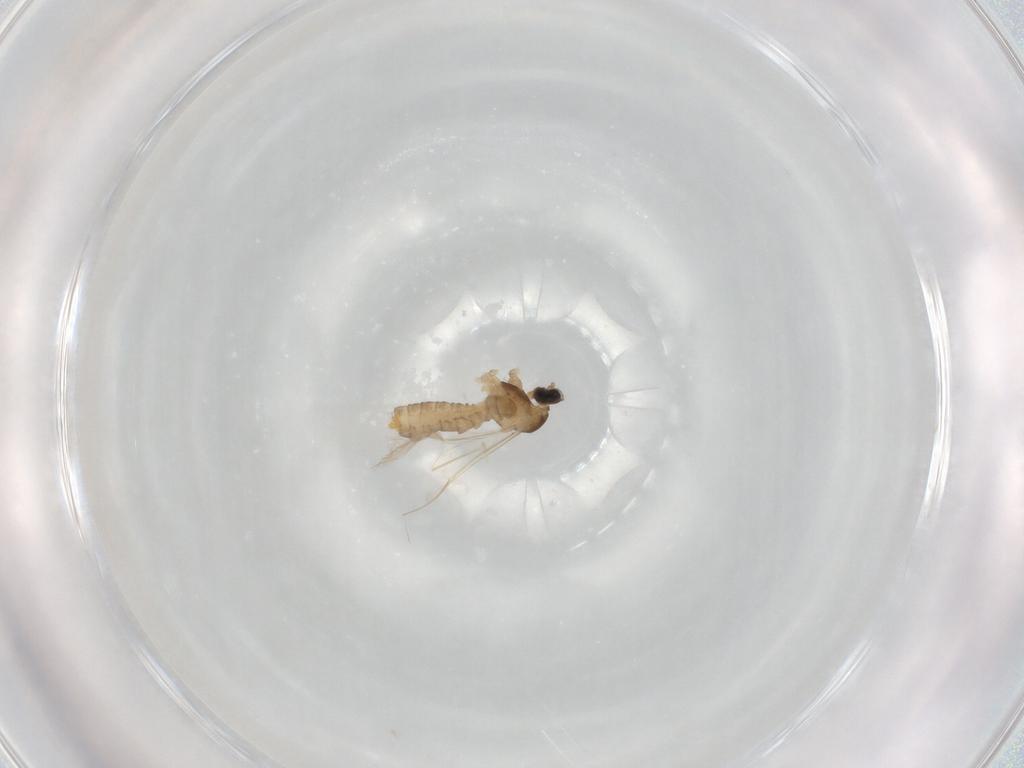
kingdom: Animalia
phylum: Arthropoda
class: Insecta
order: Diptera
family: Cecidomyiidae
